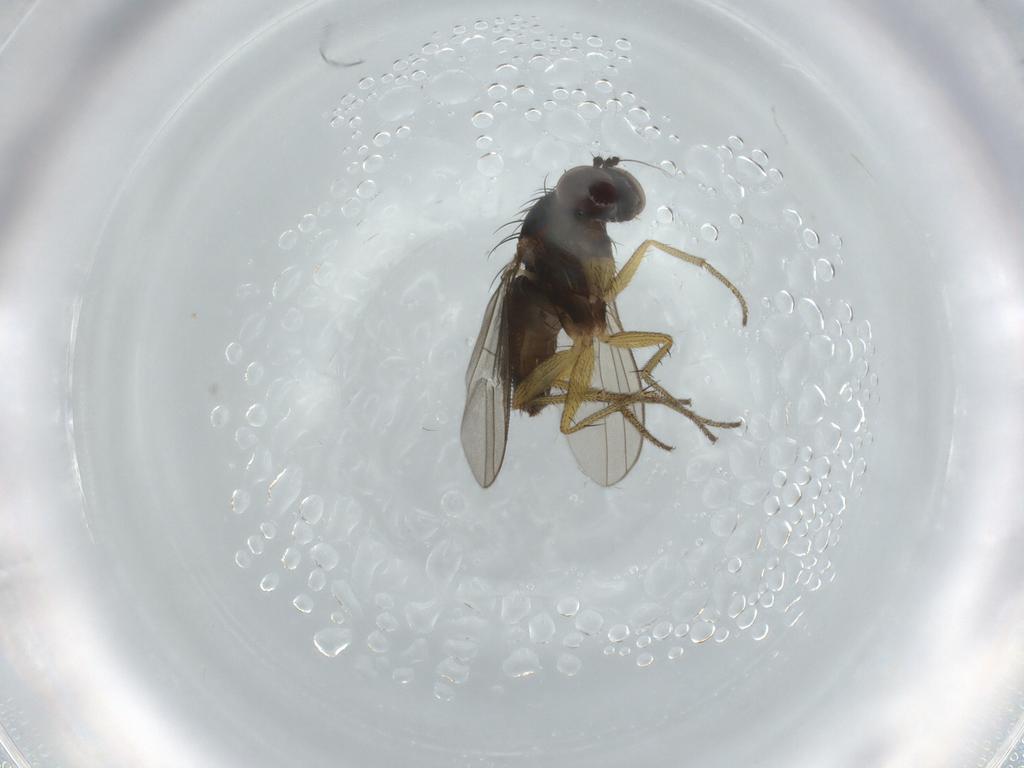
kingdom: Animalia
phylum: Arthropoda
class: Insecta
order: Diptera
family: Dolichopodidae
